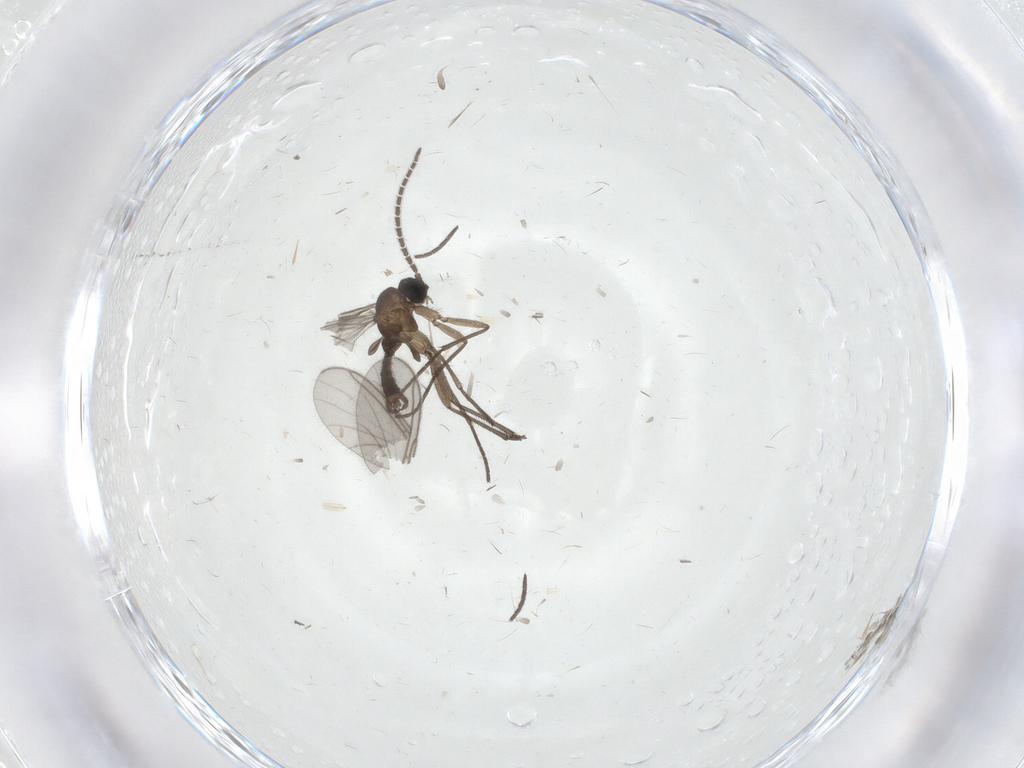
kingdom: Animalia
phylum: Arthropoda
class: Insecta
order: Diptera
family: Sciaridae
